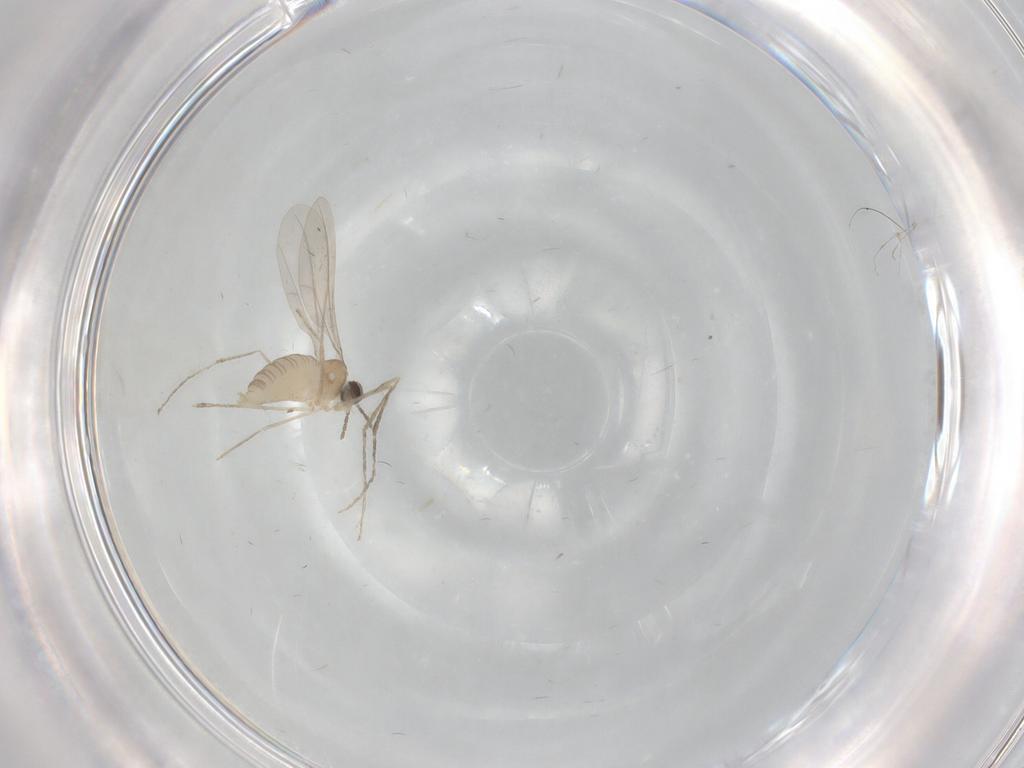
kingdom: Animalia
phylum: Arthropoda
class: Insecta
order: Diptera
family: Cecidomyiidae
